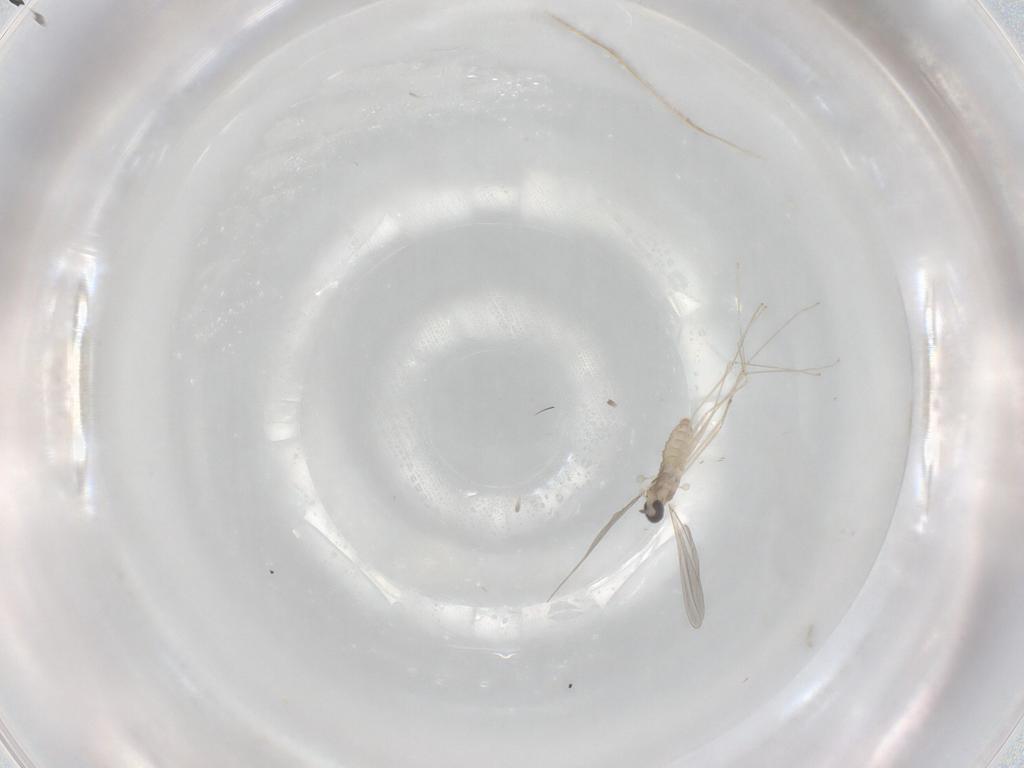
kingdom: Animalia
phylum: Arthropoda
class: Insecta
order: Diptera
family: Cecidomyiidae
